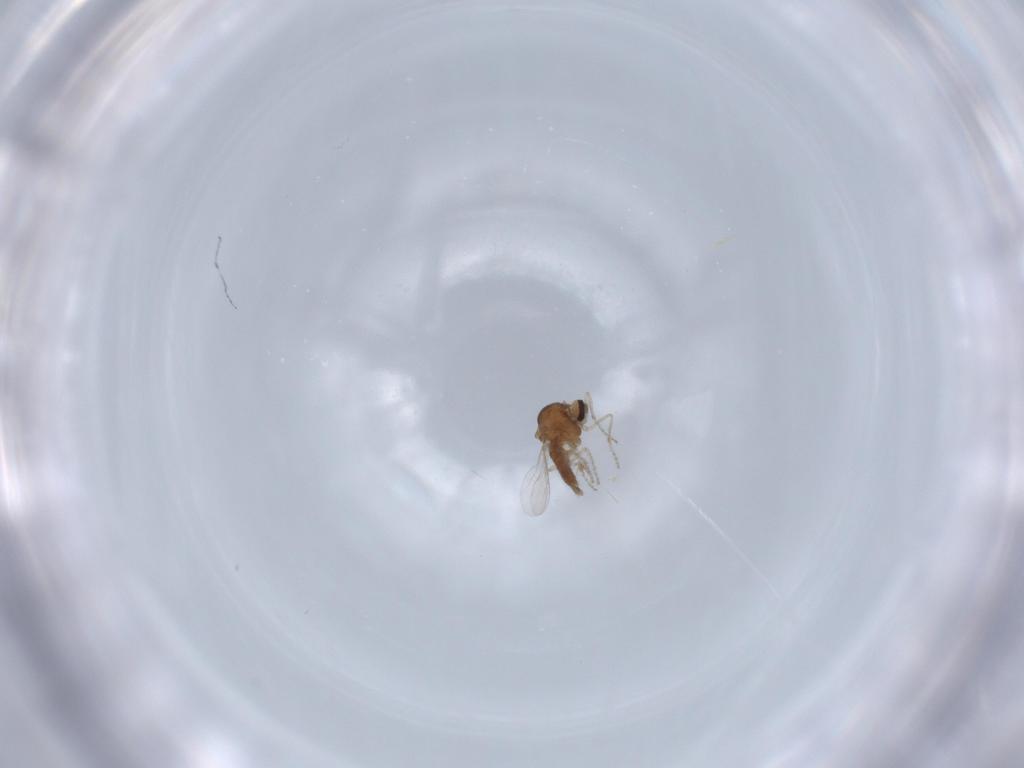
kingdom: Animalia
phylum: Arthropoda
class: Insecta
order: Diptera
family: Ceratopogonidae
